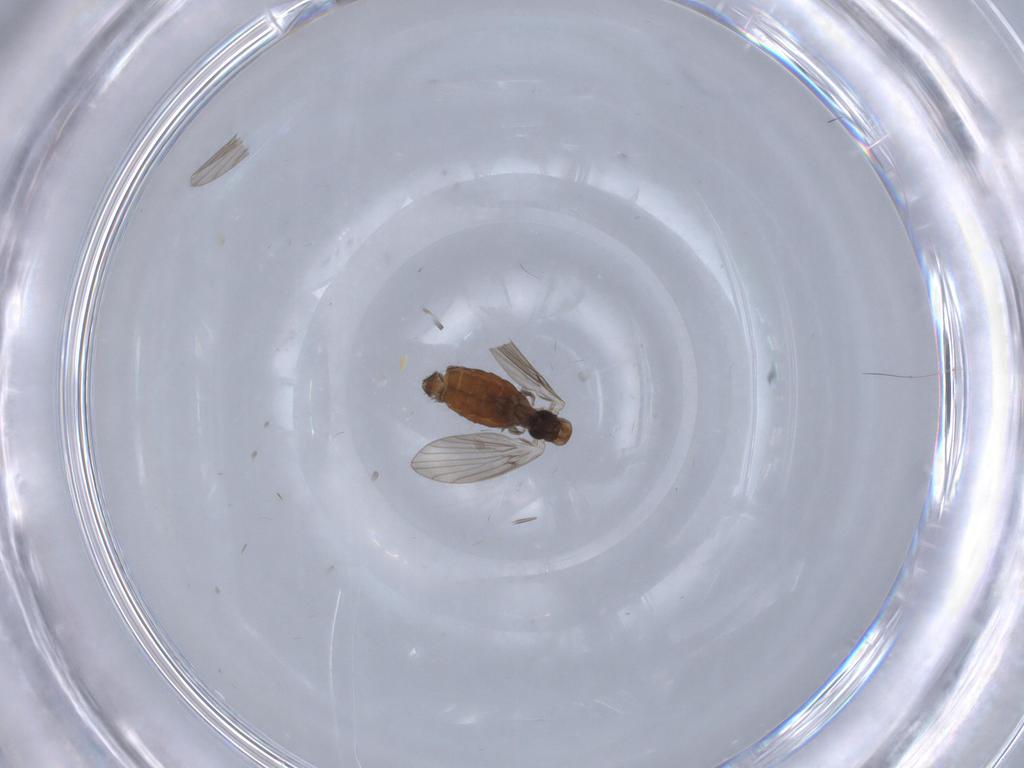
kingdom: Animalia
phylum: Arthropoda
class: Insecta
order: Diptera
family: Psychodidae
